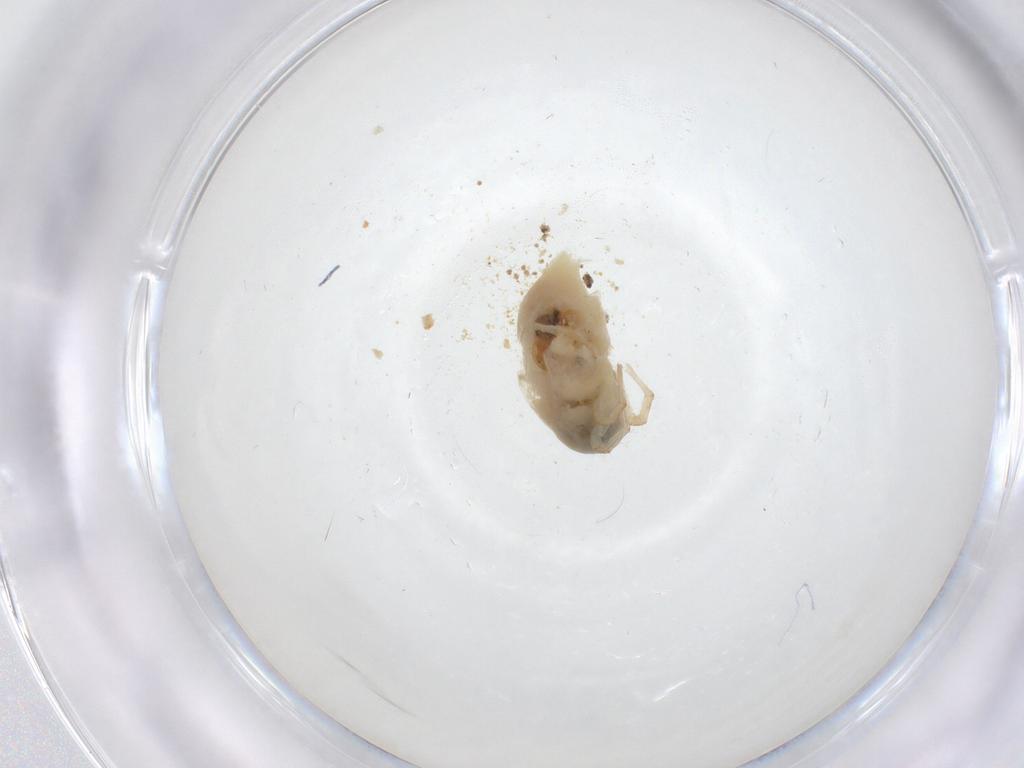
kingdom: Animalia
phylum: Arthropoda
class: Arachnida
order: Trombidiformes
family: Bdellidae
